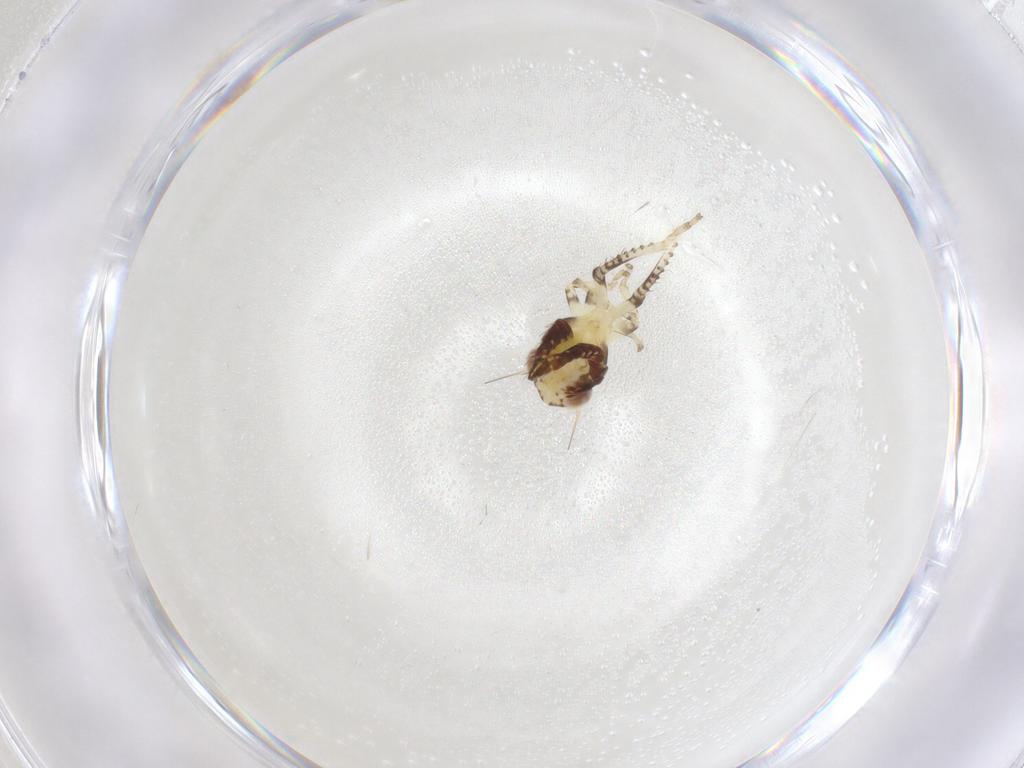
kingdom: Animalia
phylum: Arthropoda
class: Insecta
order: Hemiptera
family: Cicadellidae
